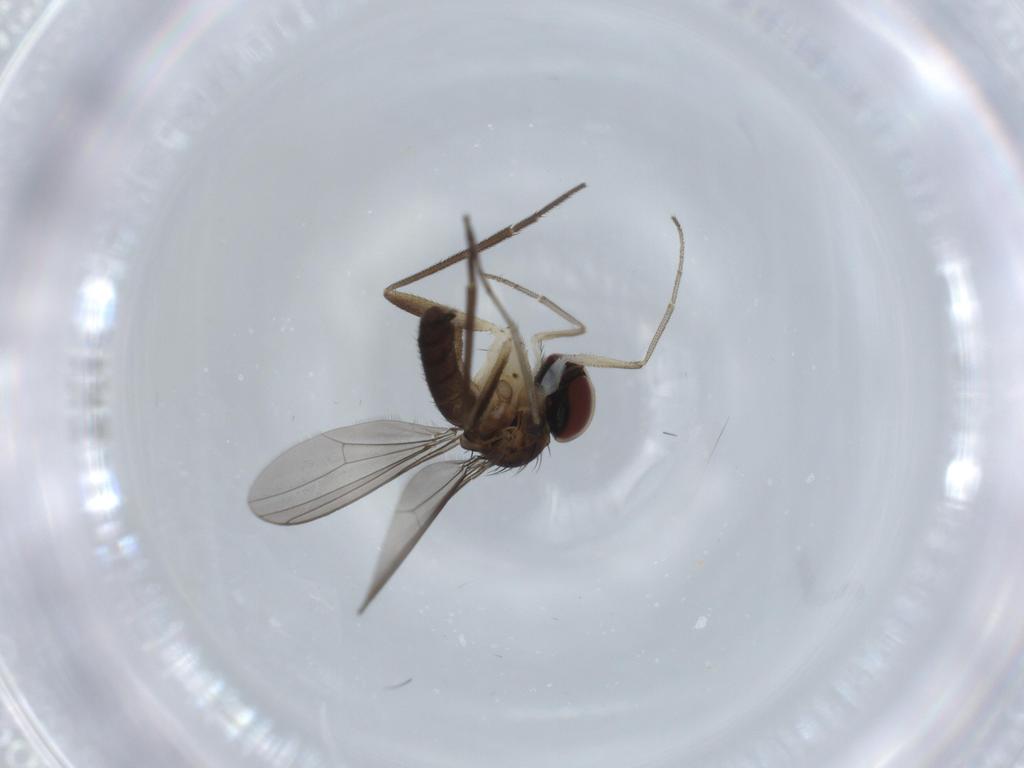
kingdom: Animalia
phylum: Arthropoda
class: Insecta
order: Diptera
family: Dolichopodidae
